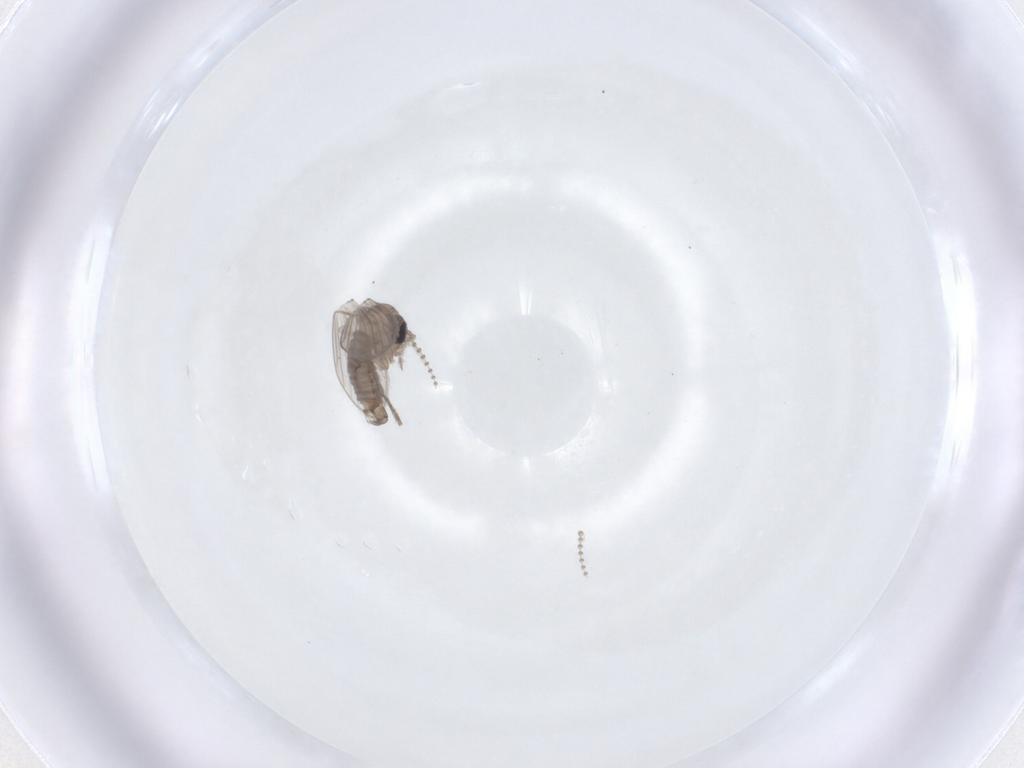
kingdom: Animalia
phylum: Arthropoda
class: Insecta
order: Diptera
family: Psychodidae
